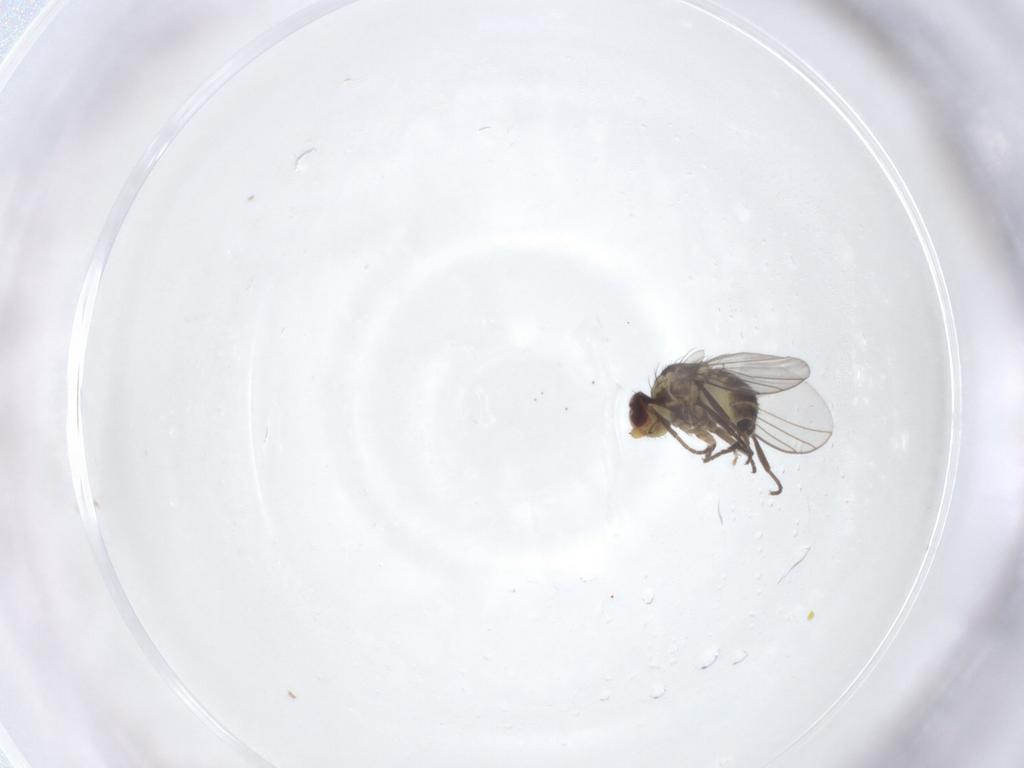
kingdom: Animalia
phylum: Arthropoda
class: Insecta
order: Diptera
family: Agromyzidae
